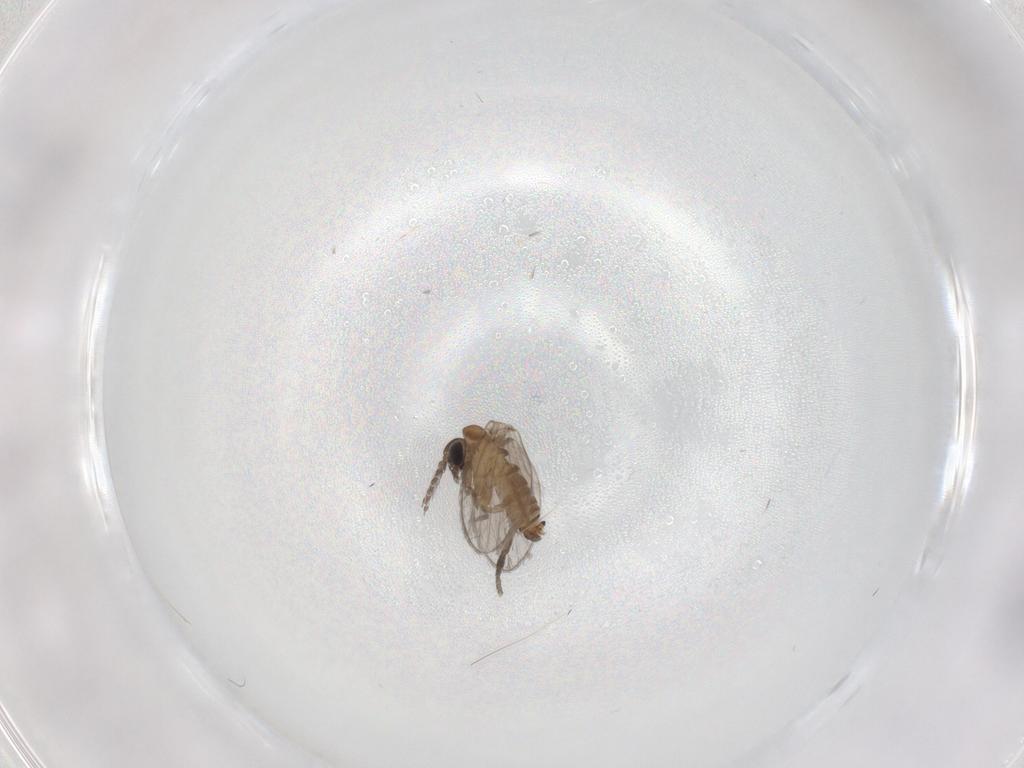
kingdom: Animalia
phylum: Arthropoda
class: Insecta
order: Diptera
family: Psychodidae
